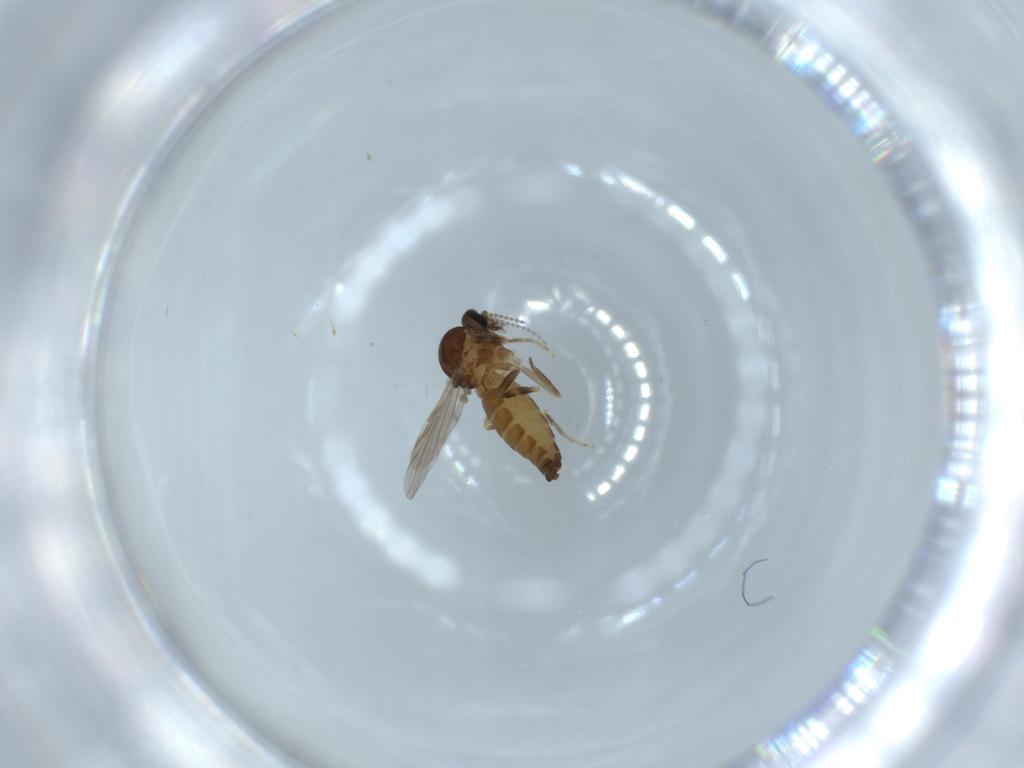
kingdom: Animalia
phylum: Arthropoda
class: Insecta
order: Diptera
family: Ceratopogonidae
